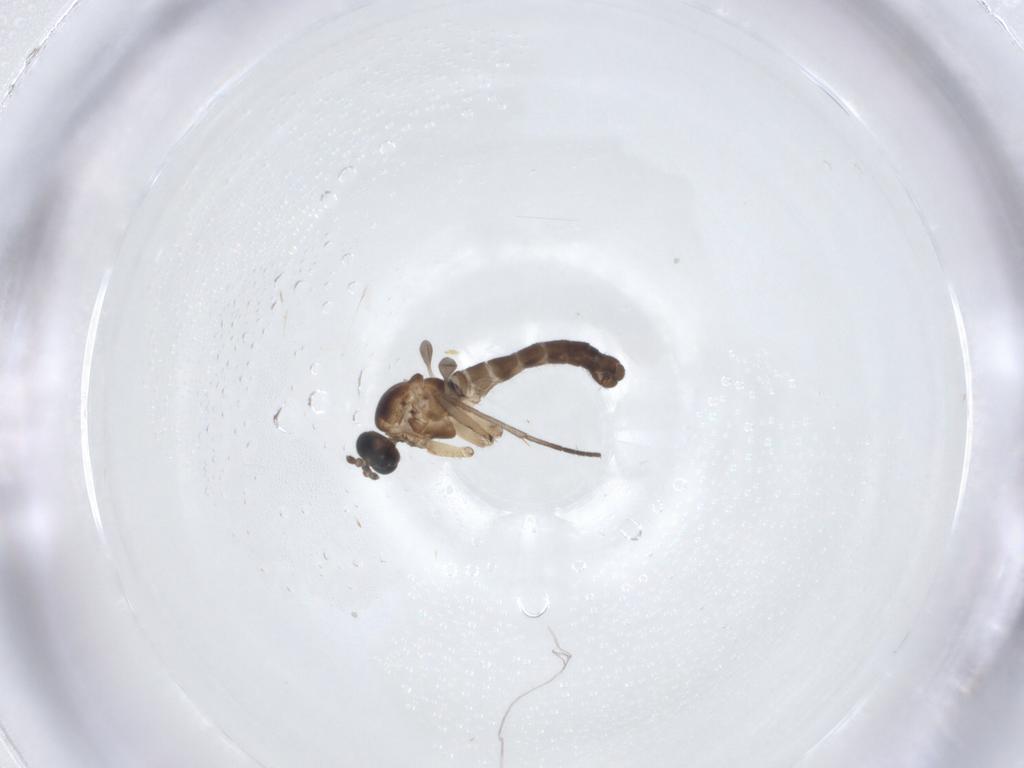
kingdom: Animalia
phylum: Arthropoda
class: Insecta
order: Diptera
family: Sciaridae
